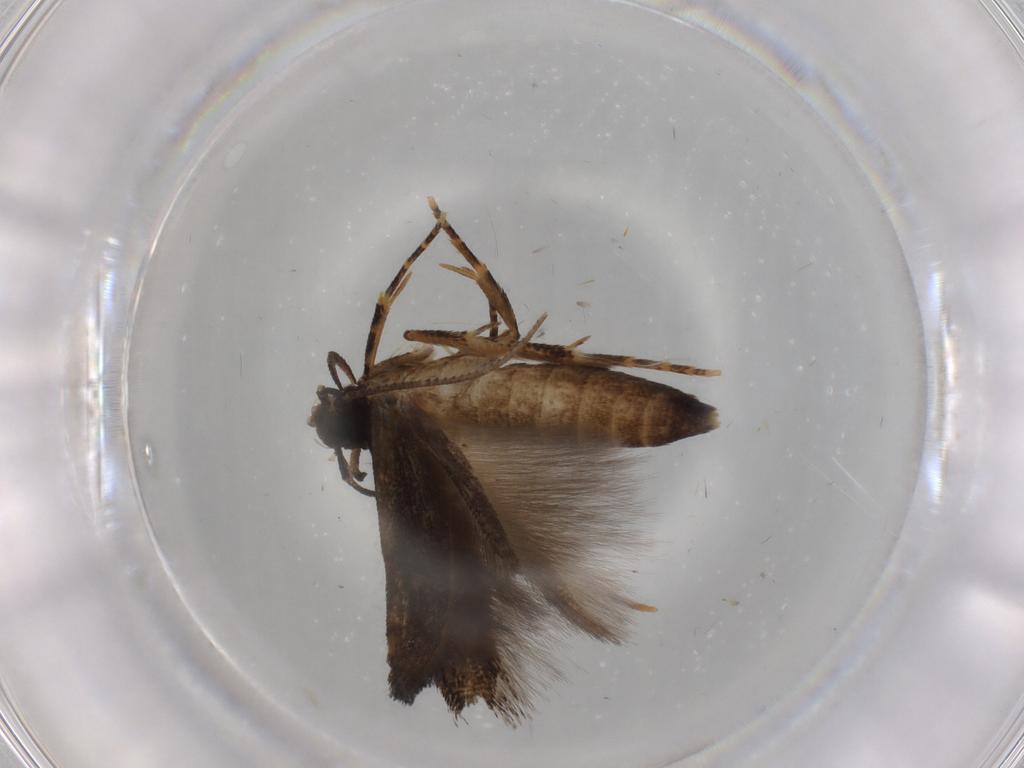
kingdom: Animalia
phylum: Arthropoda
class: Insecta
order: Lepidoptera
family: Cosmopterigidae
